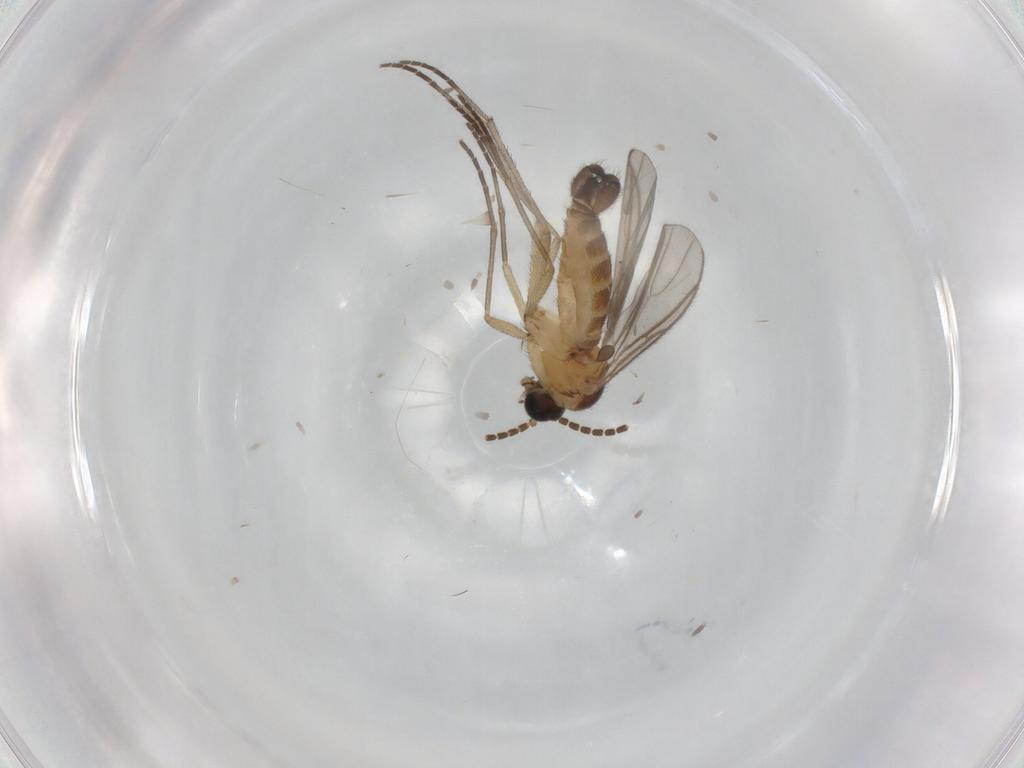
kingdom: Animalia
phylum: Arthropoda
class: Insecta
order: Diptera
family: Sciaridae
